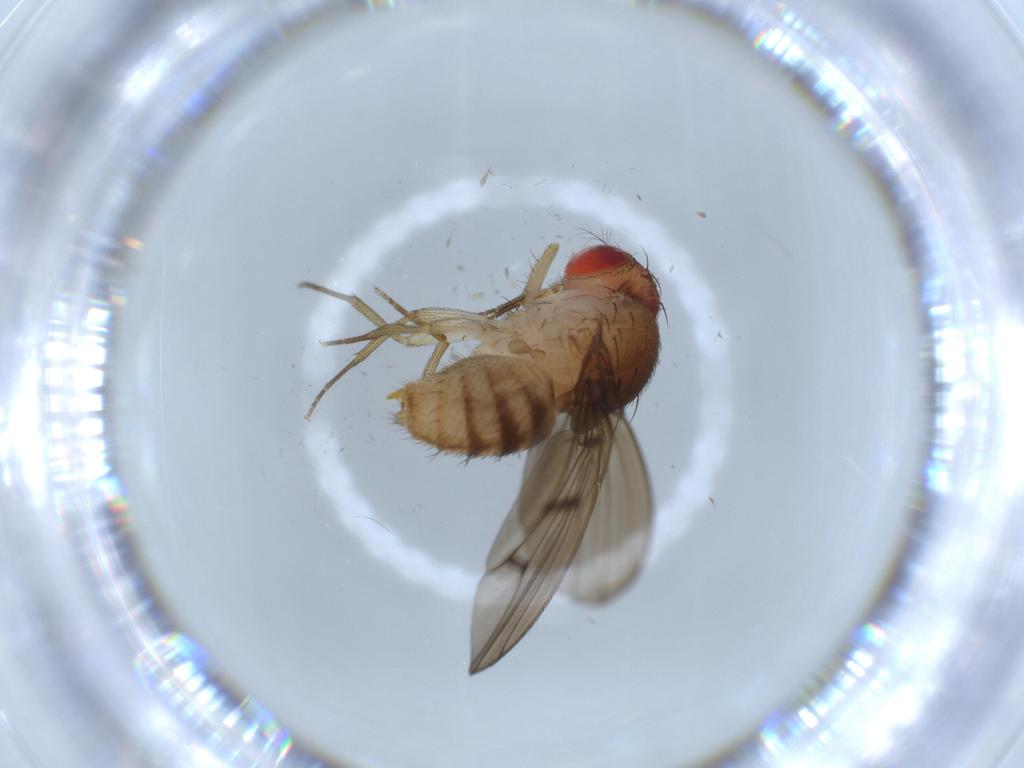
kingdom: Animalia
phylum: Arthropoda
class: Insecta
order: Diptera
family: Drosophilidae
